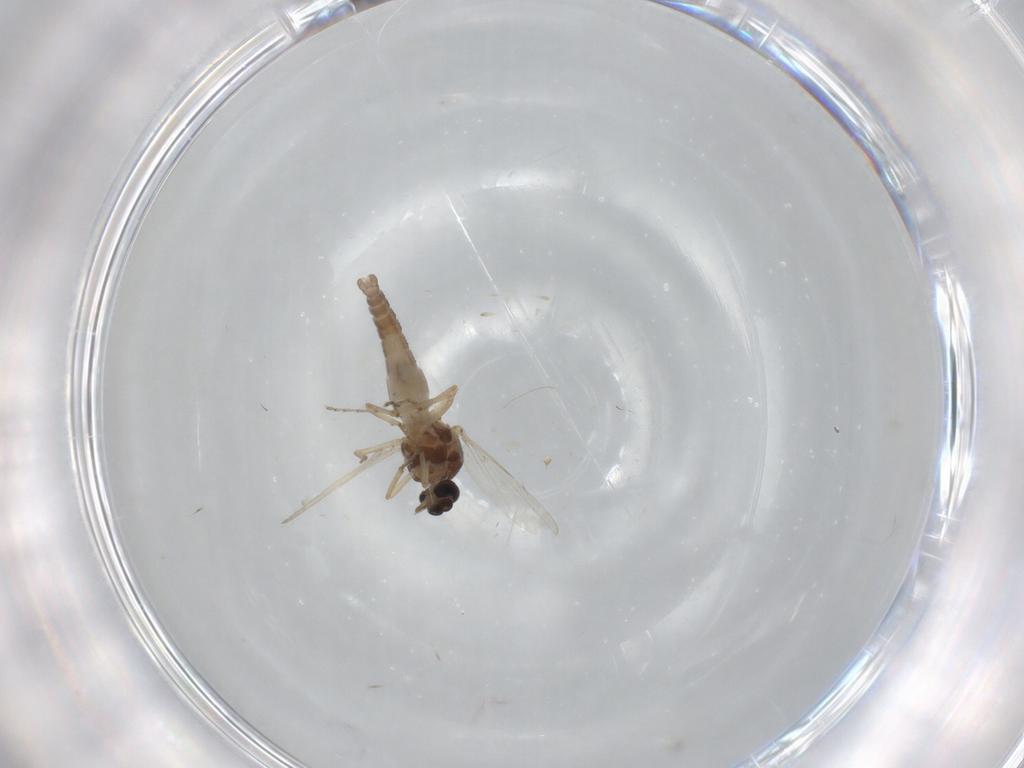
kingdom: Animalia
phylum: Arthropoda
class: Insecta
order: Diptera
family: Ceratopogonidae
